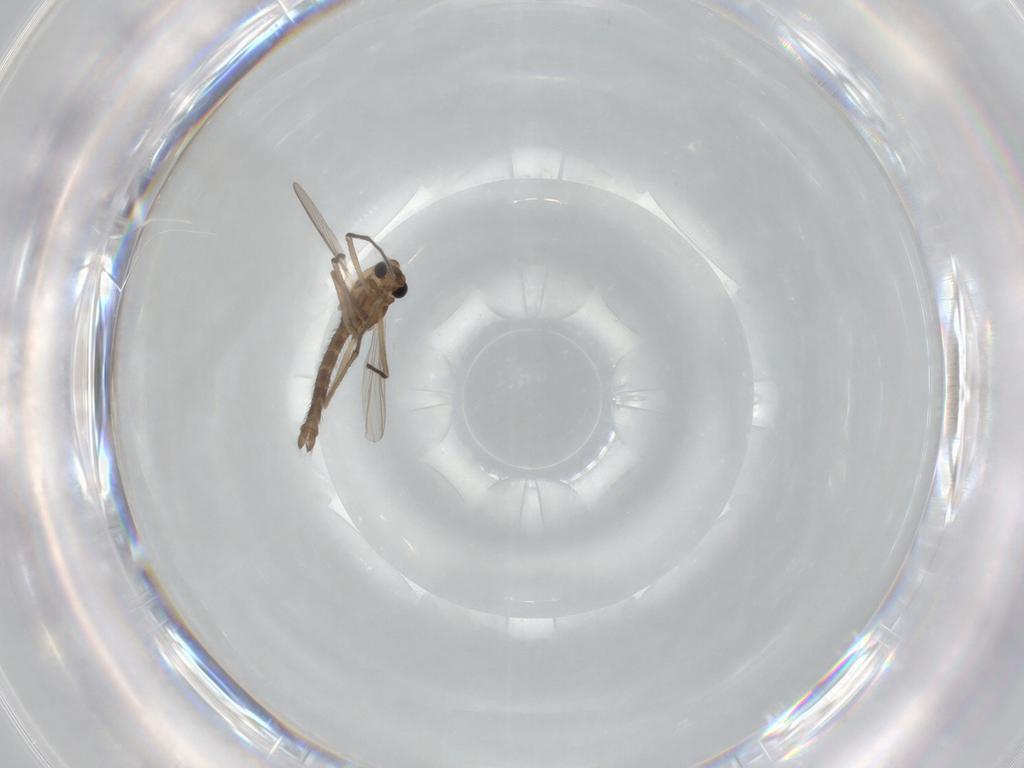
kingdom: Animalia
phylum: Arthropoda
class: Insecta
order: Diptera
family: Chironomidae
